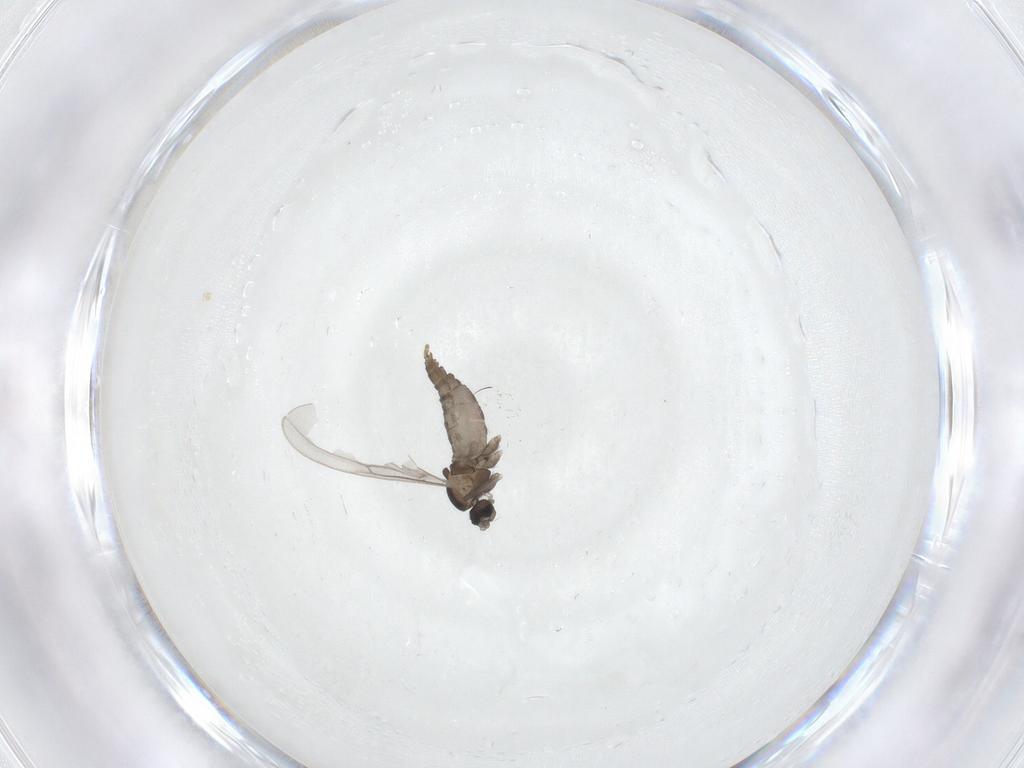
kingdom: Animalia
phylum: Arthropoda
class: Insecta
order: Diptera
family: Cecidomyiidae
